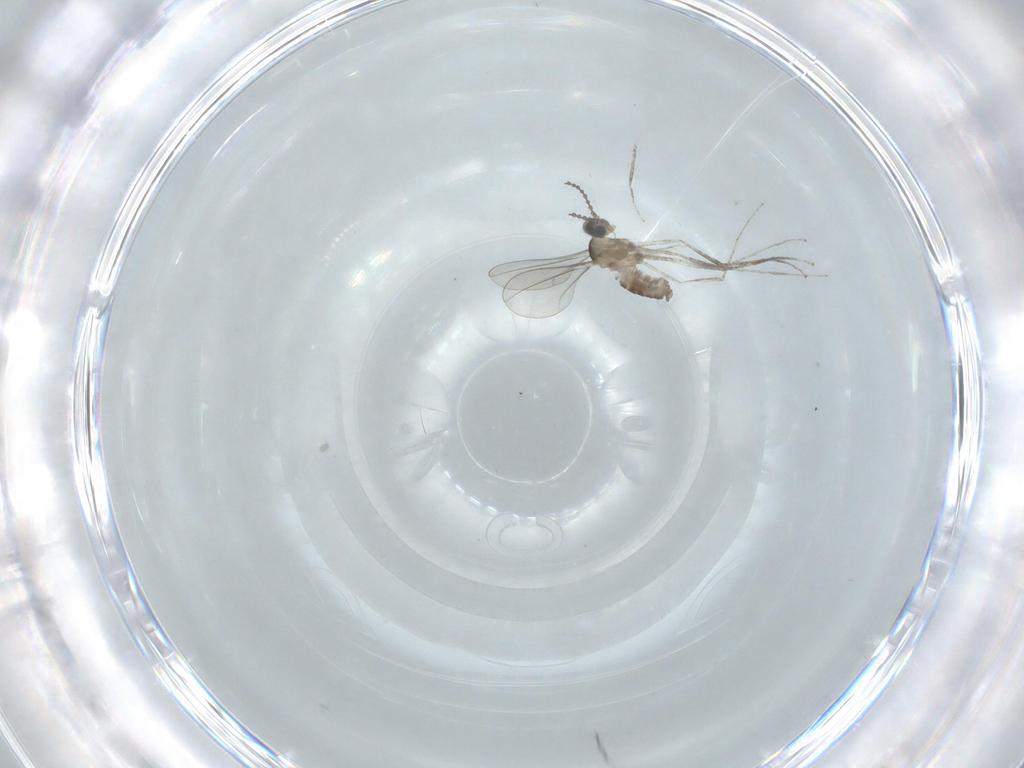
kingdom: Animalia
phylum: Arthropoda
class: Insecta
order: Diptera
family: Cecidomyiidae
